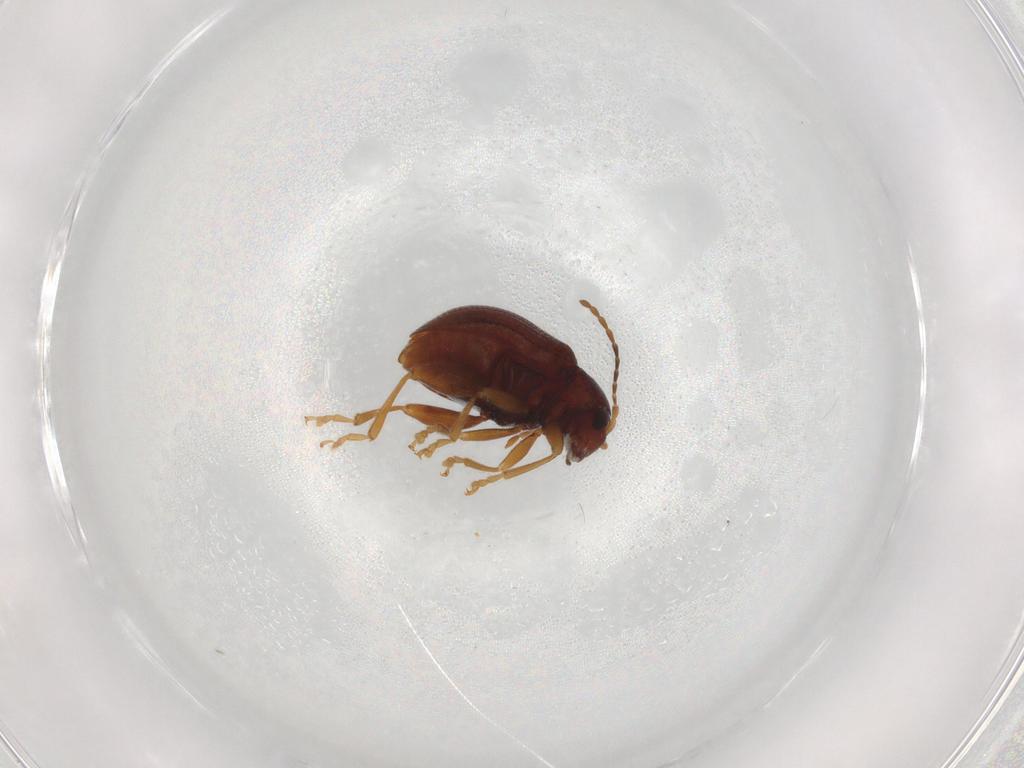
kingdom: Animalia
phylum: Arthropoda
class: Insecta
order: Coleoptera
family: Chrysomelidae
